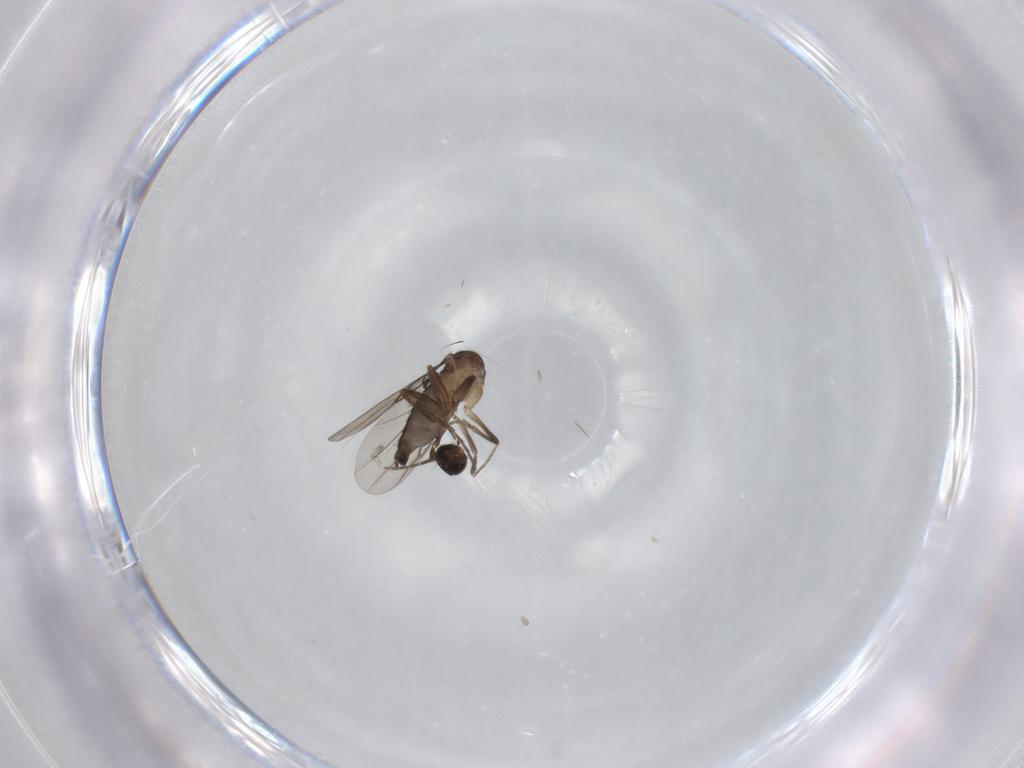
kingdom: Animalia
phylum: Arthropoda
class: Insecta
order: Diptera
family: Phoridae
